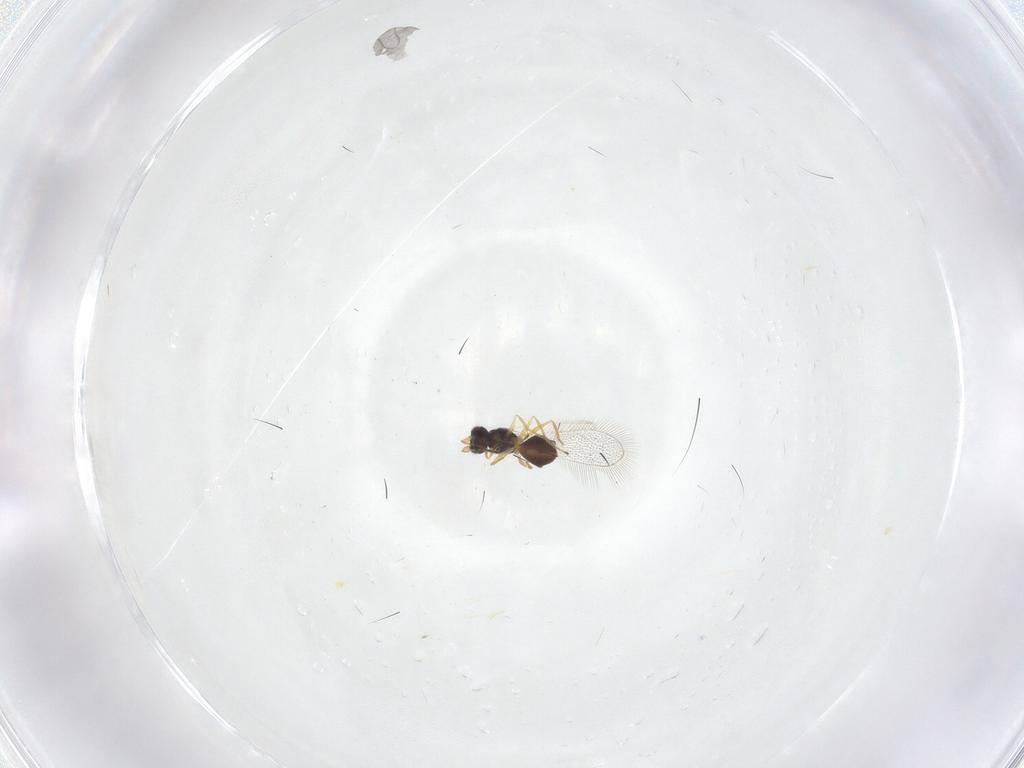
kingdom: Animalia
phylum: Arthropoda
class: Insecta
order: Hymenoptera
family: Mymaridae
